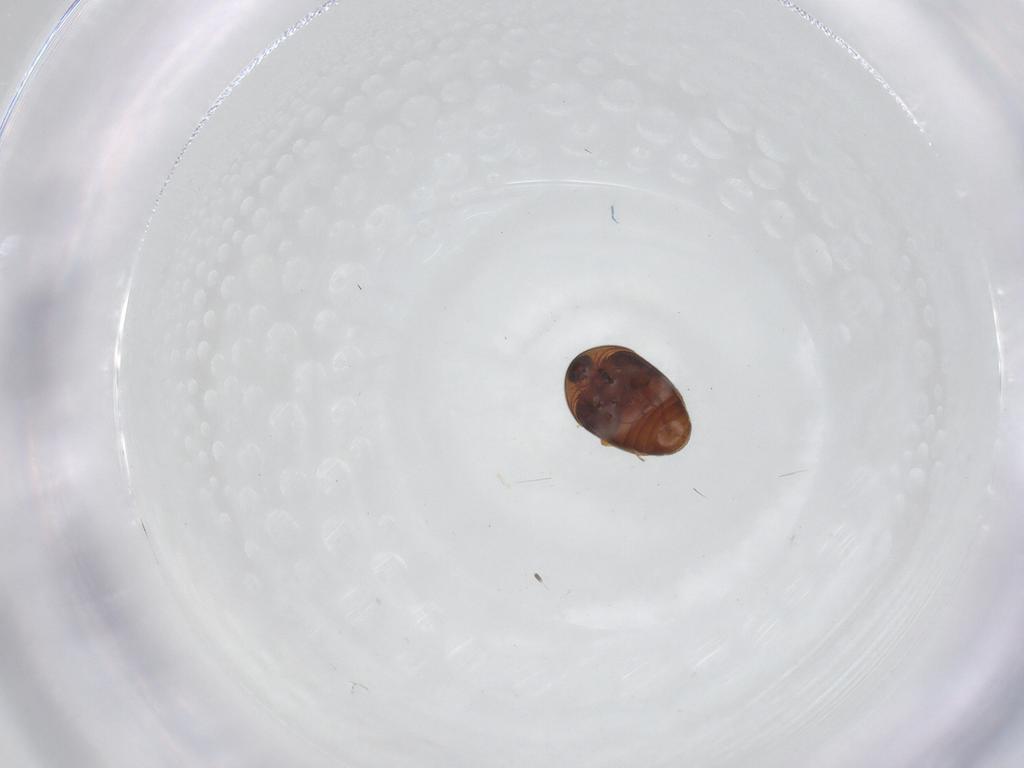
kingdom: Animalia
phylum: Arthropoda
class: Insecta
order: Coleoptera
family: Corylophidae
